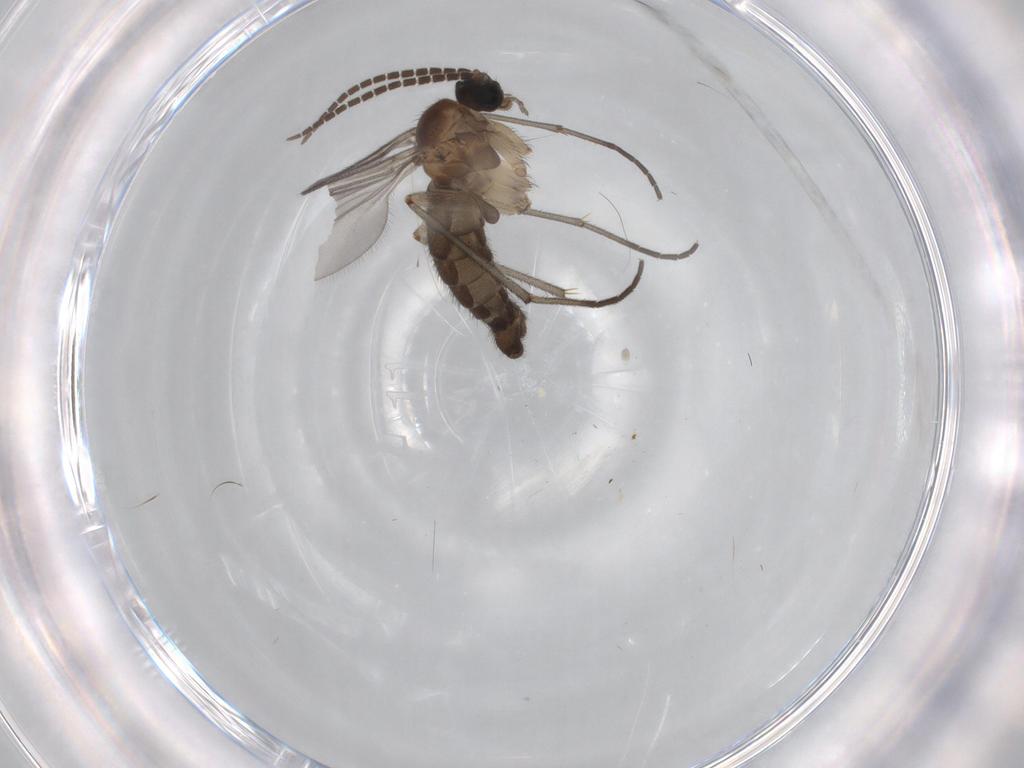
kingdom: Animalia
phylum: Arthropoda
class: Insecta
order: Diptera
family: Sciaridae
